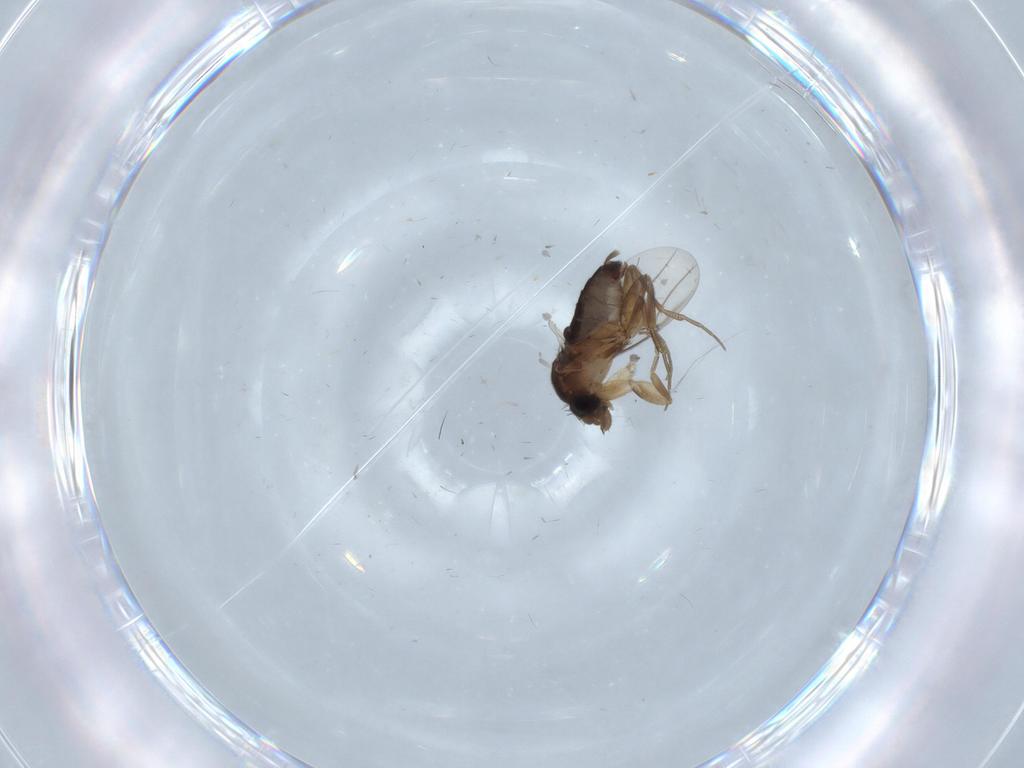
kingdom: Animalia
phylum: Arthropoda
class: Insecta
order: Diptera
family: Phoridae
